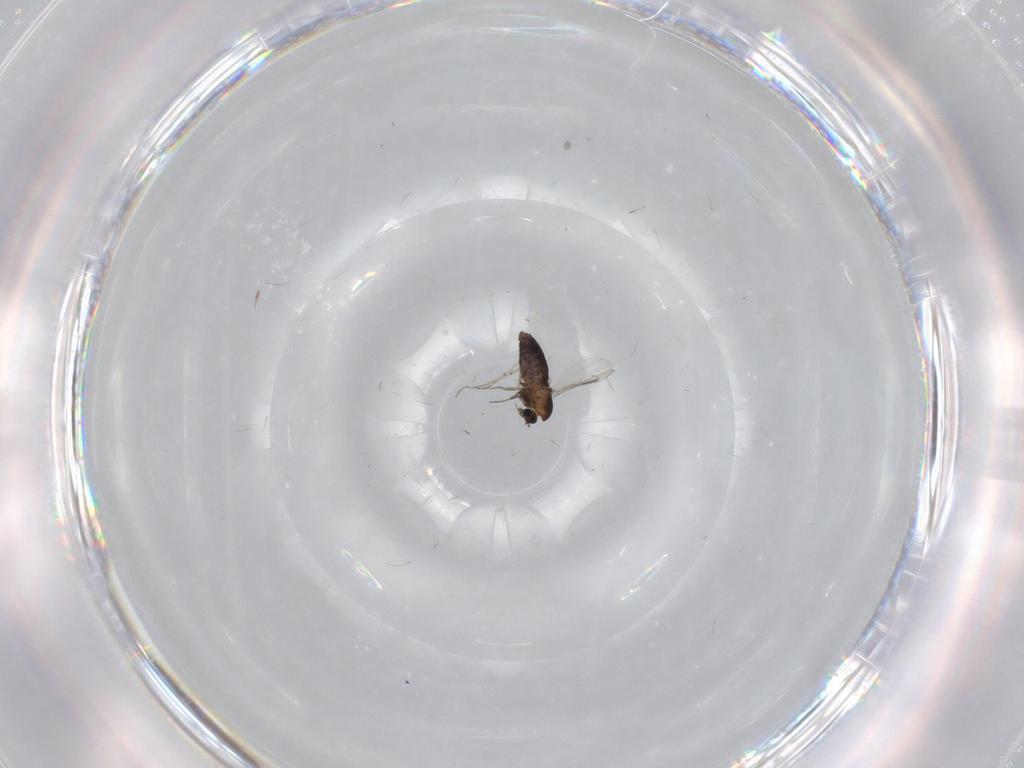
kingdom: Animalia
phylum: Arthropoda
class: Insecta
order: Diptera
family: Chironomidae
